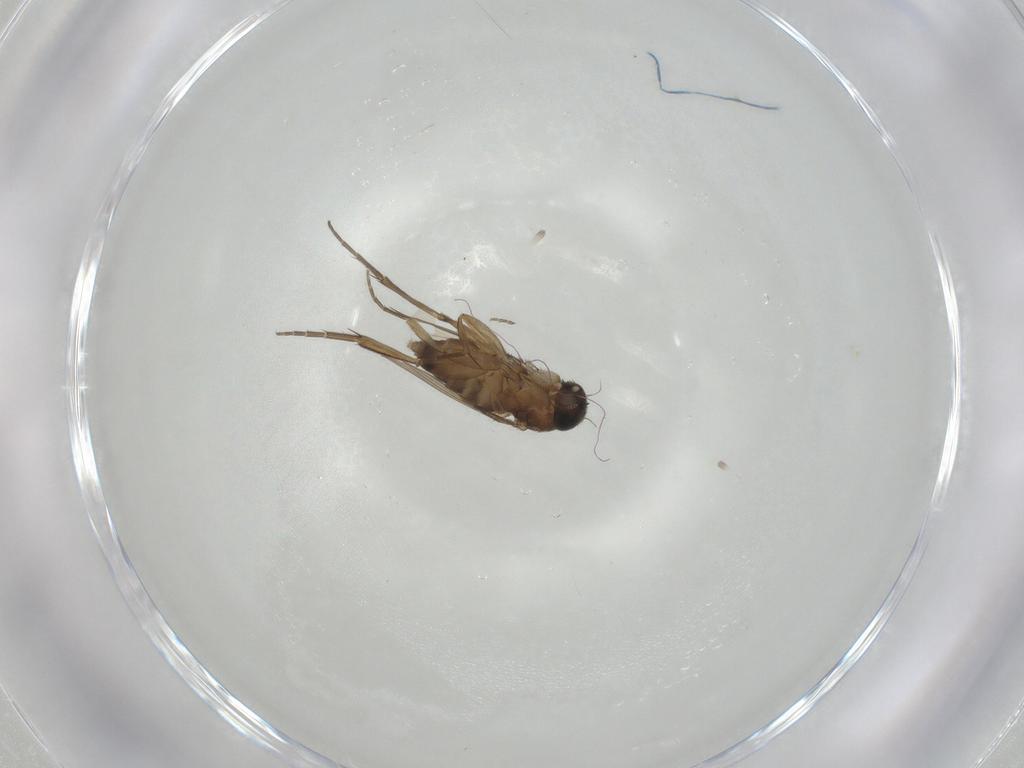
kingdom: Animalia
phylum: Arthropoda
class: Insecta
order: Diptera
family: Phoridae
